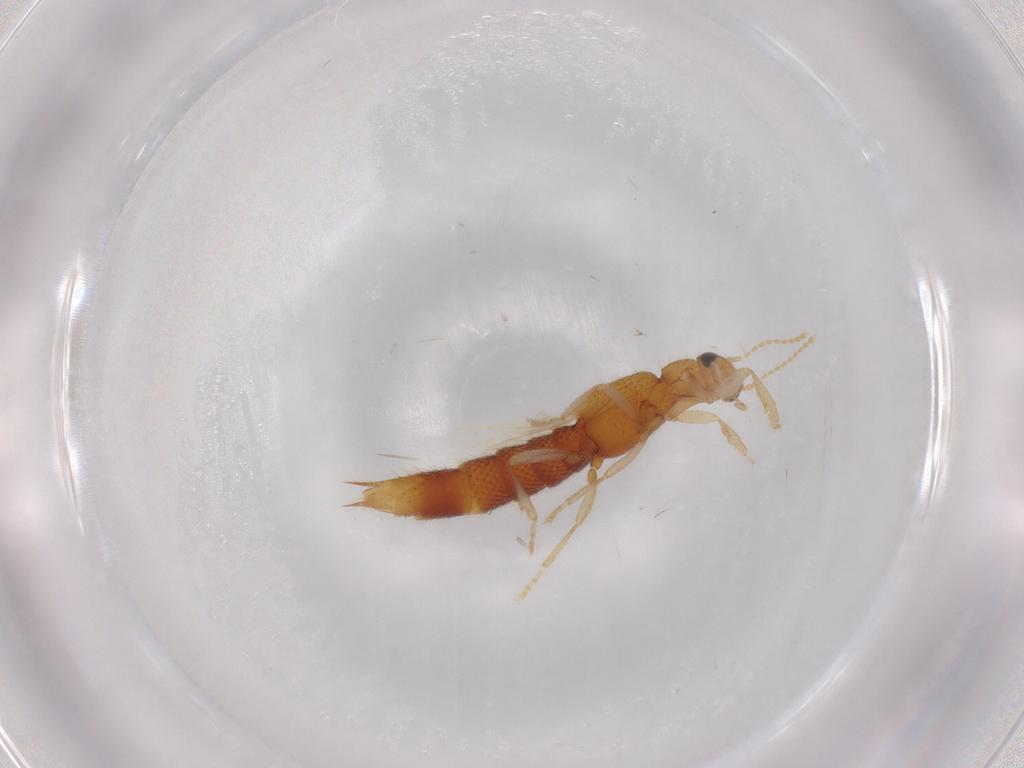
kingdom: Animalia
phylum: Arthropoda
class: Insecta
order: Coleoptera
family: Staphylinidae
